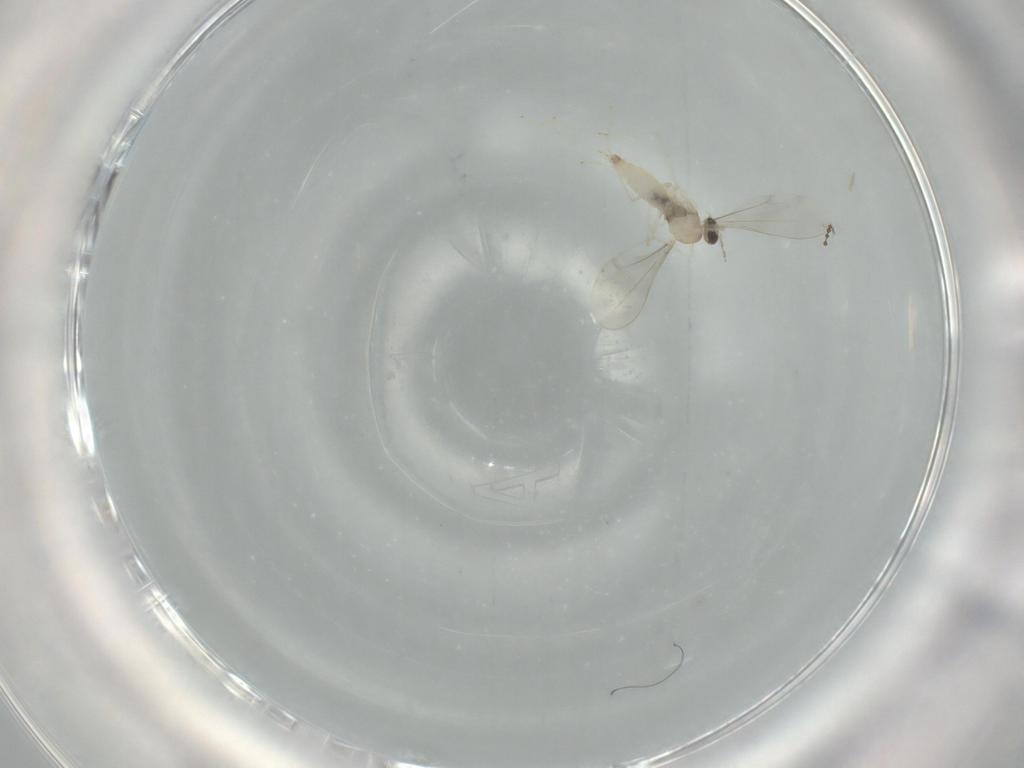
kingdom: Animalia
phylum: Arthropoda
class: Insecta
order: Diptera
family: Cecidomyiidae
